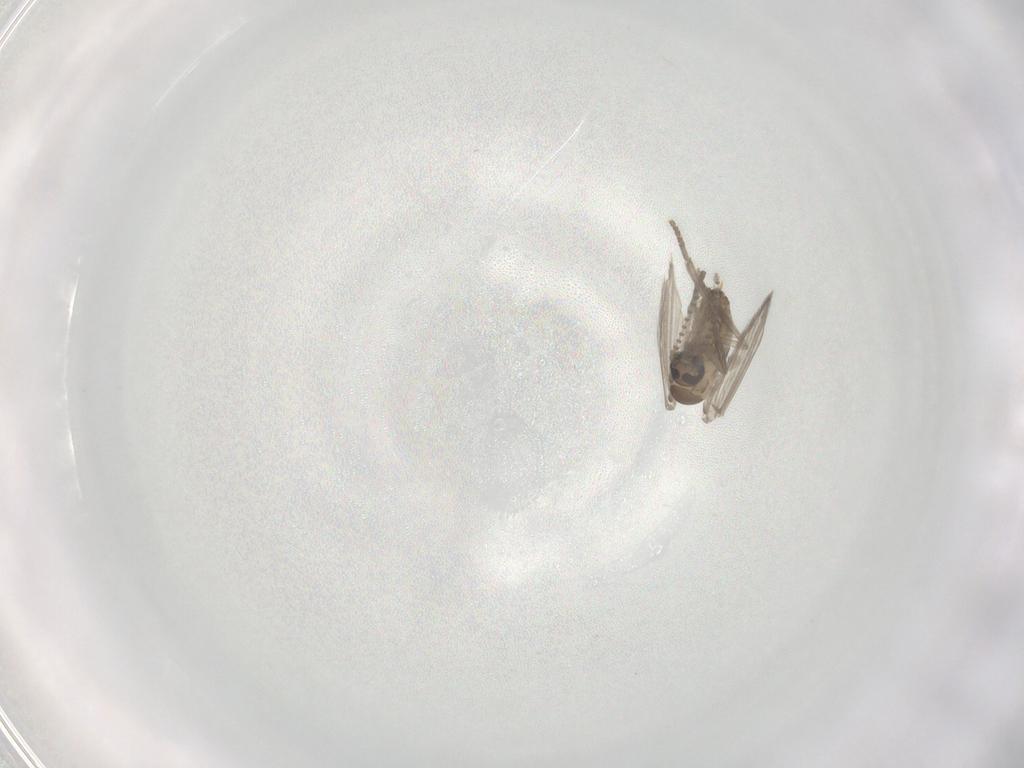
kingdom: Animalia
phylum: Arthropoda
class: Insecta
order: Diptera
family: Psychodidae
